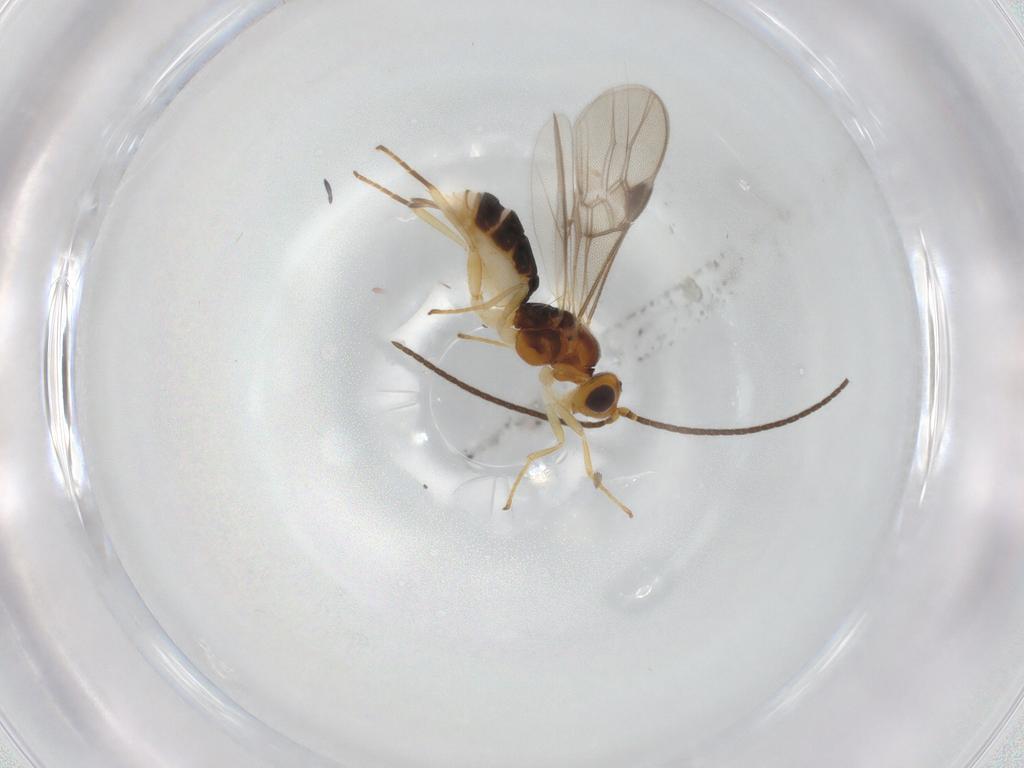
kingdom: Animalia
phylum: Arthropoda
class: Insecta
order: Hymenoptera
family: Braconidae
